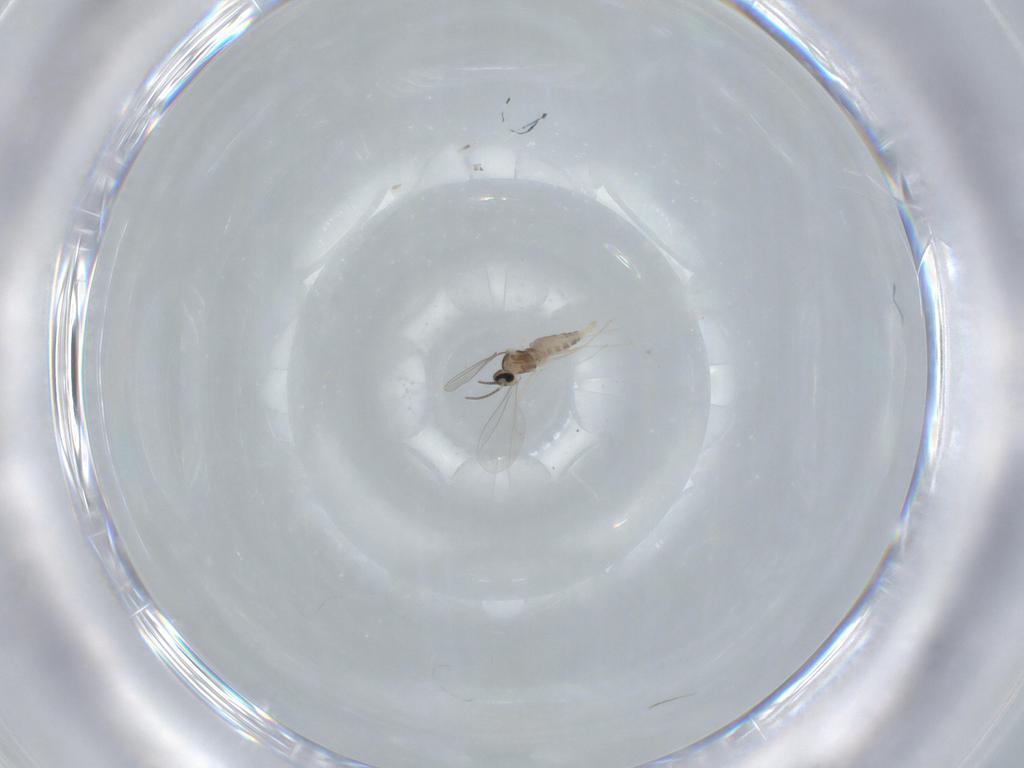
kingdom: Animalia
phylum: Arthropoda
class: Insecta
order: Diptera
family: Cecidomyiidae
